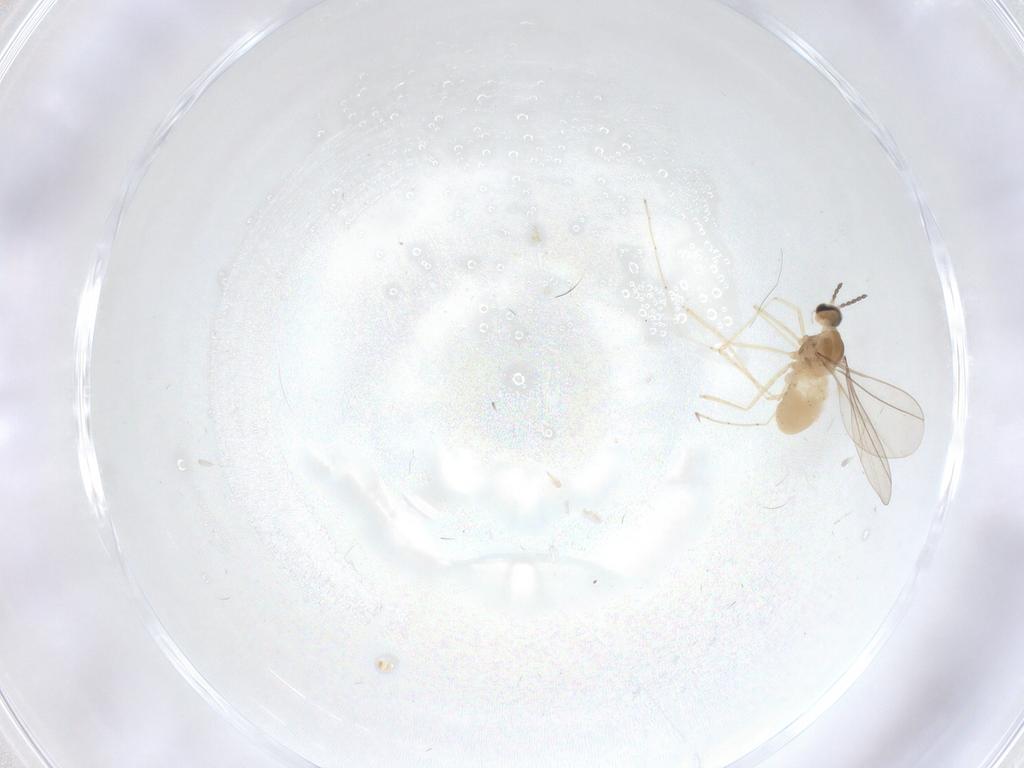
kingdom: Animalia
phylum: Arthropoda
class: Insecta
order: Diptera
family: Cecidomyiidae
